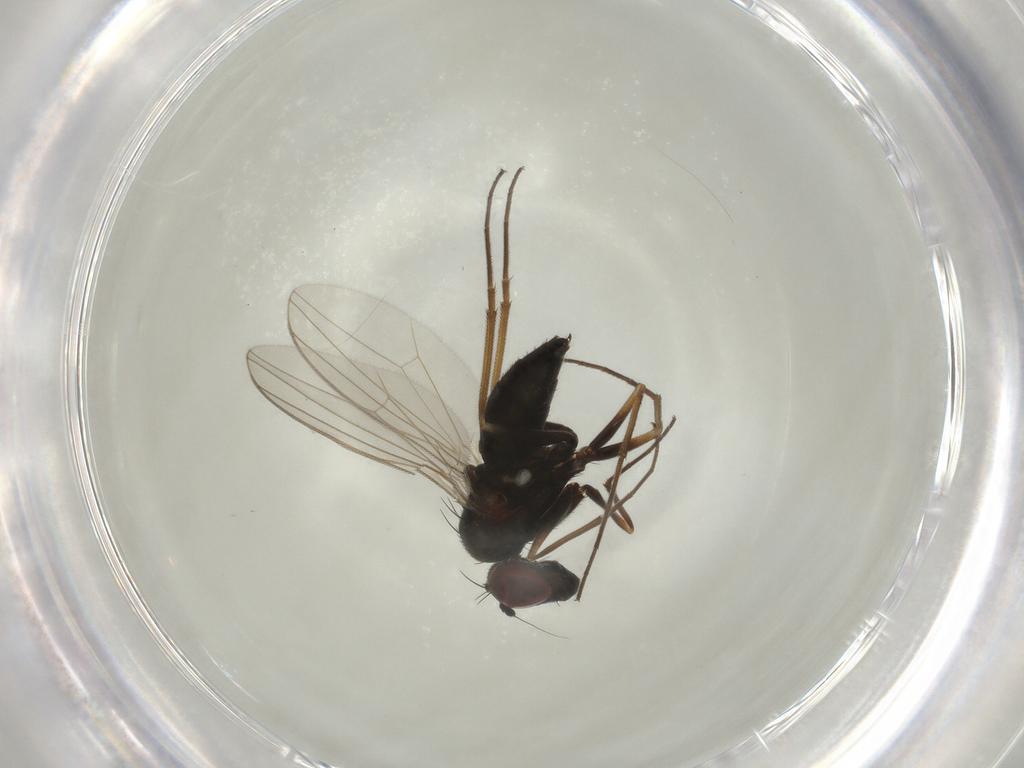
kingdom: Animalia
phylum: Arthropoda
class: Insecta
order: Diptera
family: Dolichopodidae
